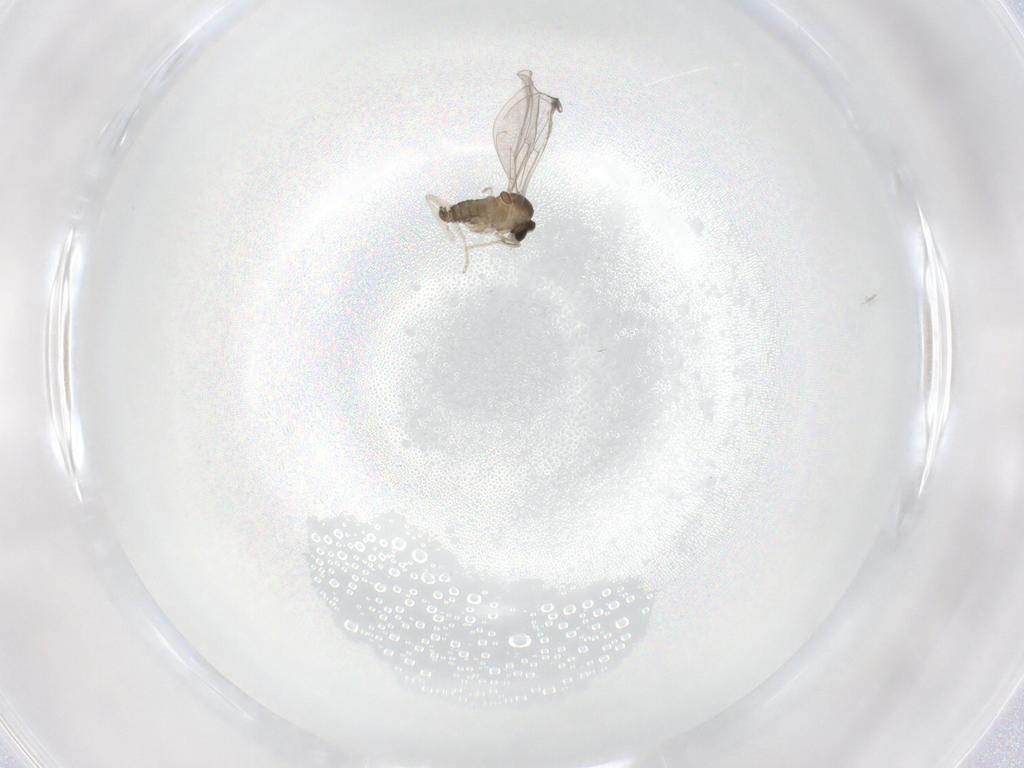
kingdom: Animalia
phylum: Arthropoda
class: Insecta
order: Diptera
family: Cecidomyiidae
